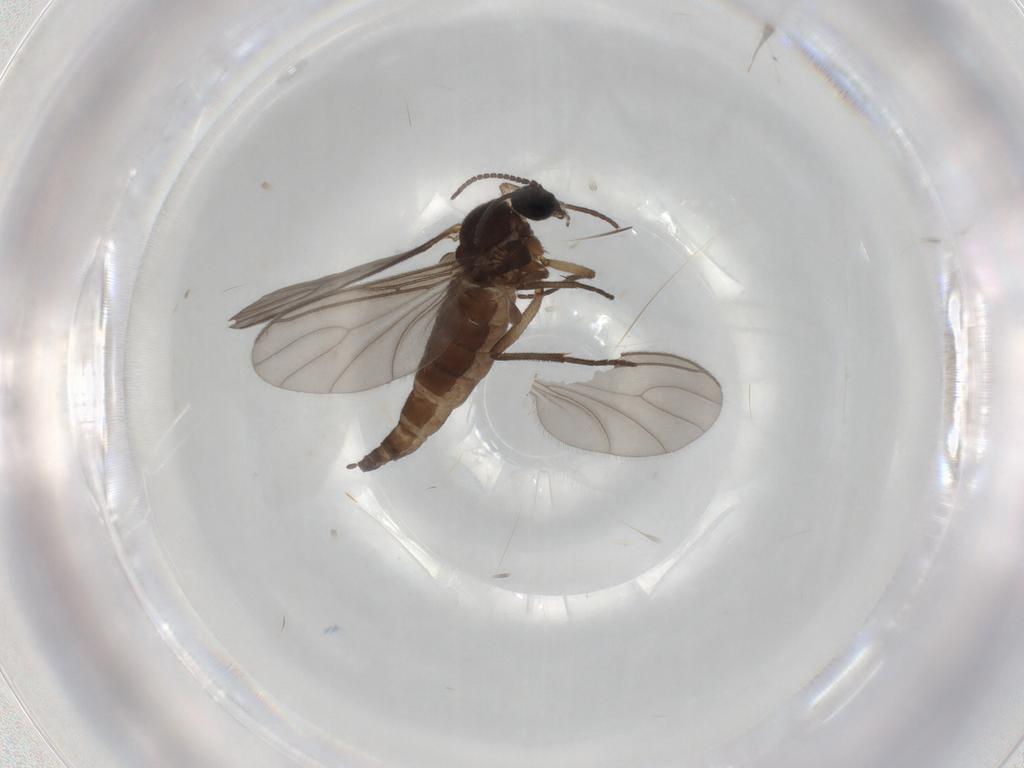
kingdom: Animalia
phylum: Arthropoda
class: Insecta
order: Diptera
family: Sciaridae
